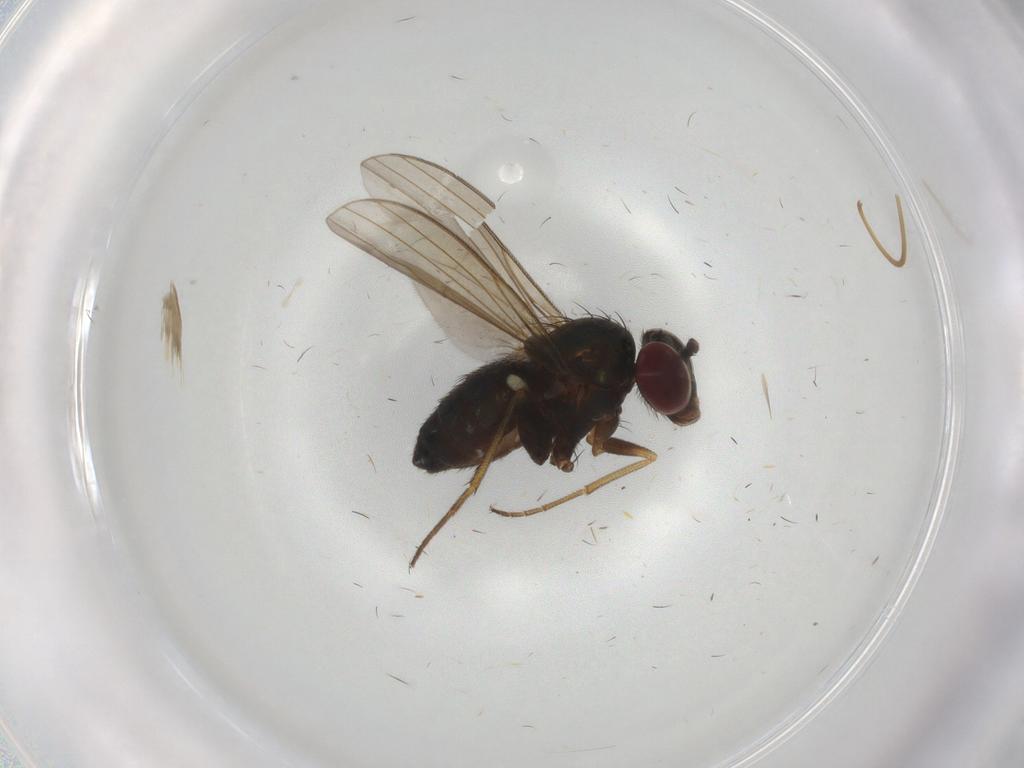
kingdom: Animalia
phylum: Arthropoda
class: Insecta
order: Diptera
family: Dolichopodidae
